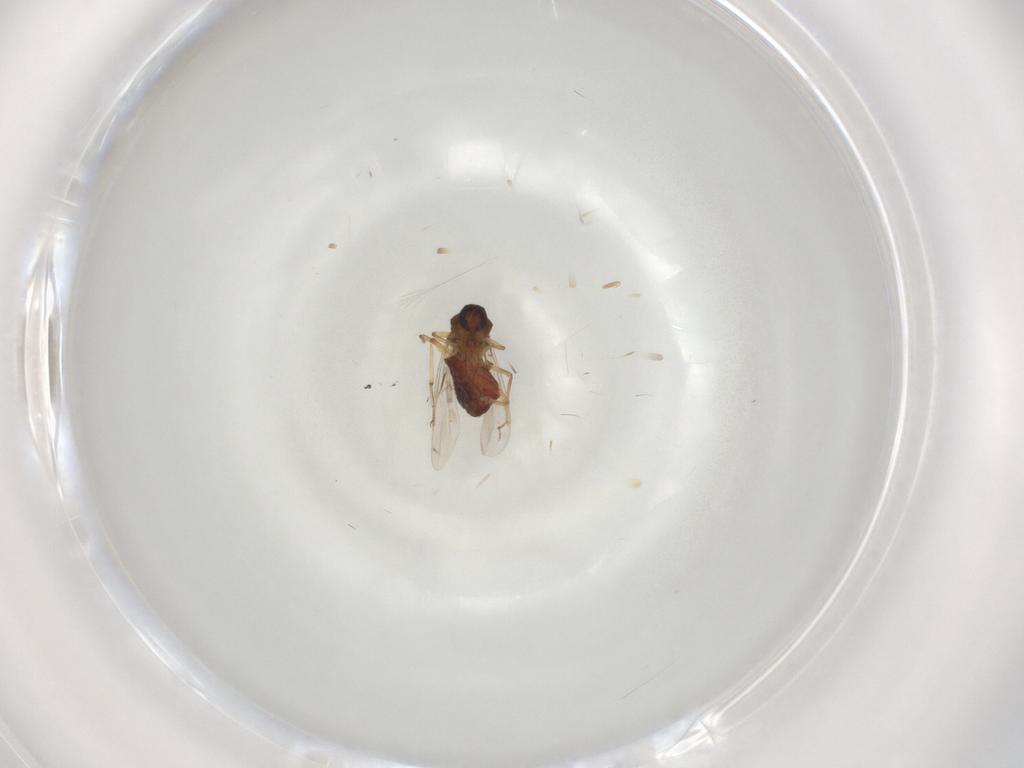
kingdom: Animalia
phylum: Arthropoda
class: Insecta
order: Diptera
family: Ceratopogonidae
